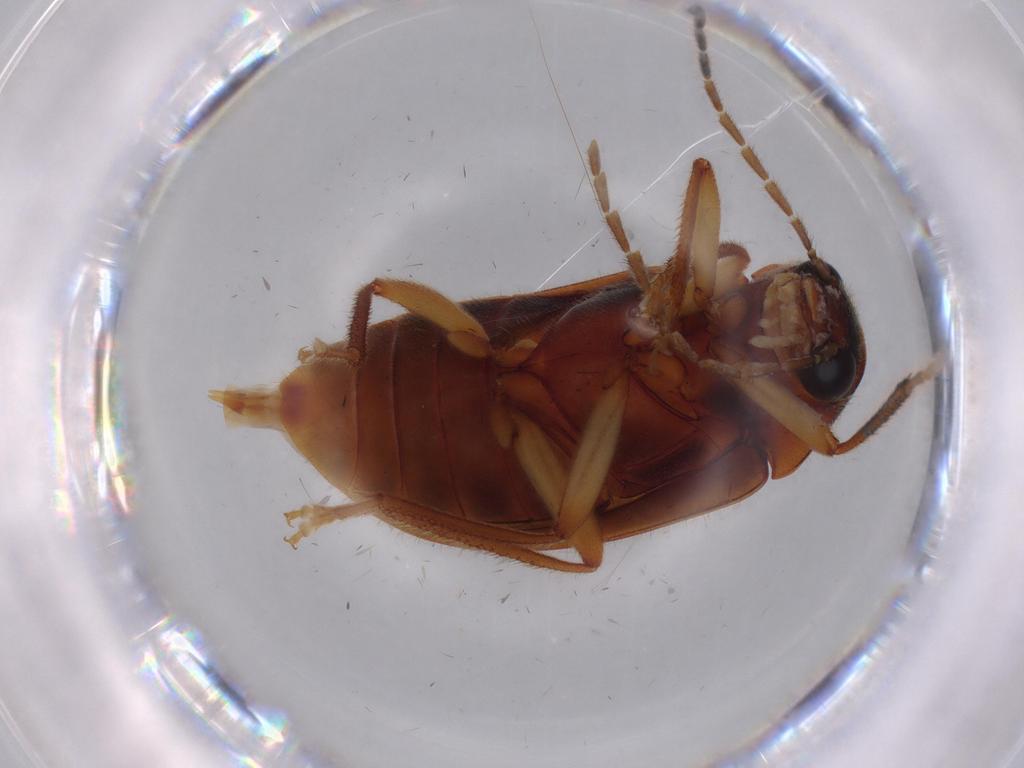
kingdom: Animalia
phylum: Arthropoda
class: Insecta
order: Coleoptera
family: Ptilodactylidae
